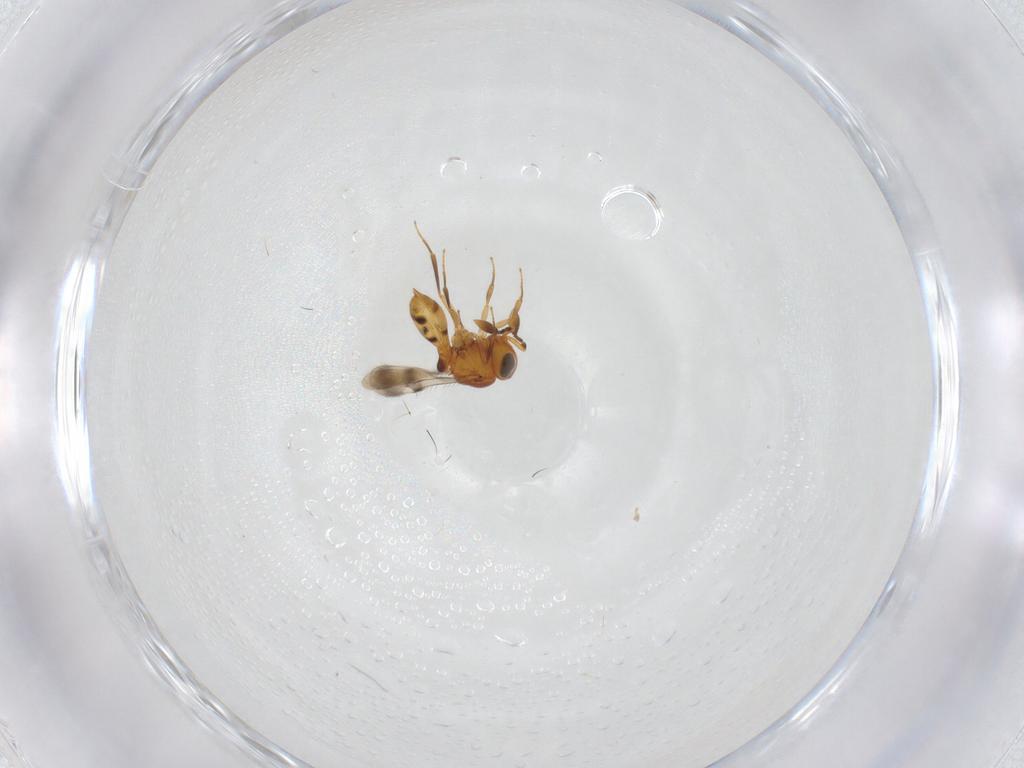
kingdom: Animalia
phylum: Arthropoda
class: Insecta
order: Hymenoptera
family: Scelionidae
